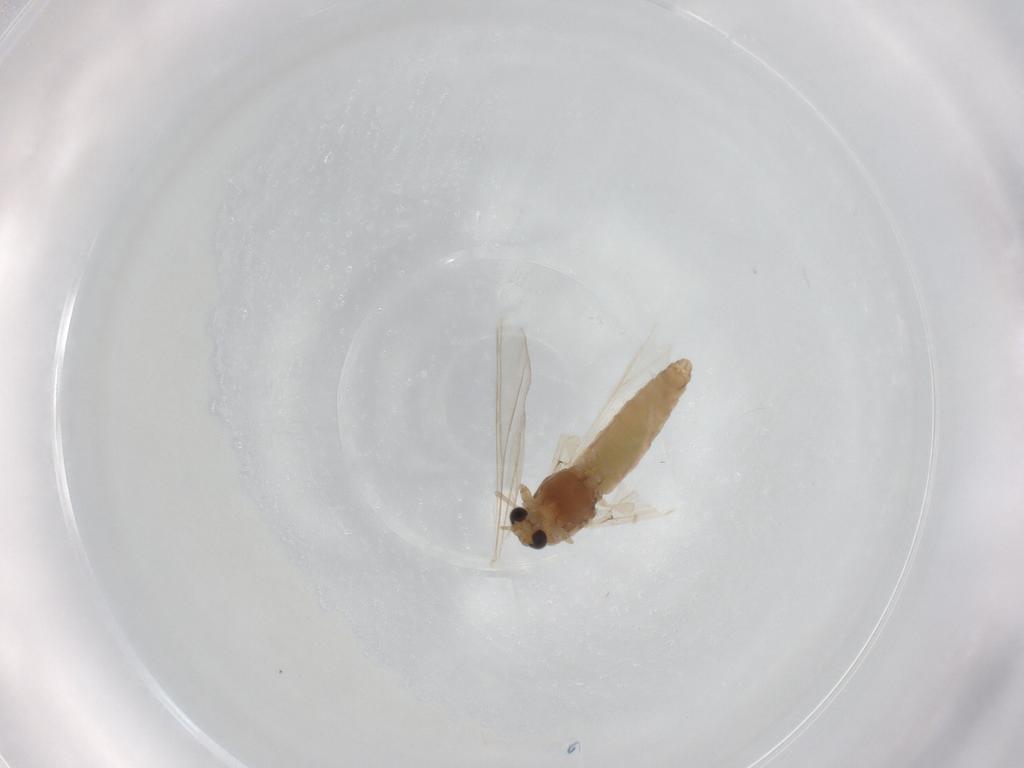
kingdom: Animalia
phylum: Arthropoda
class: Insecta
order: Diptera
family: Chironomidae
